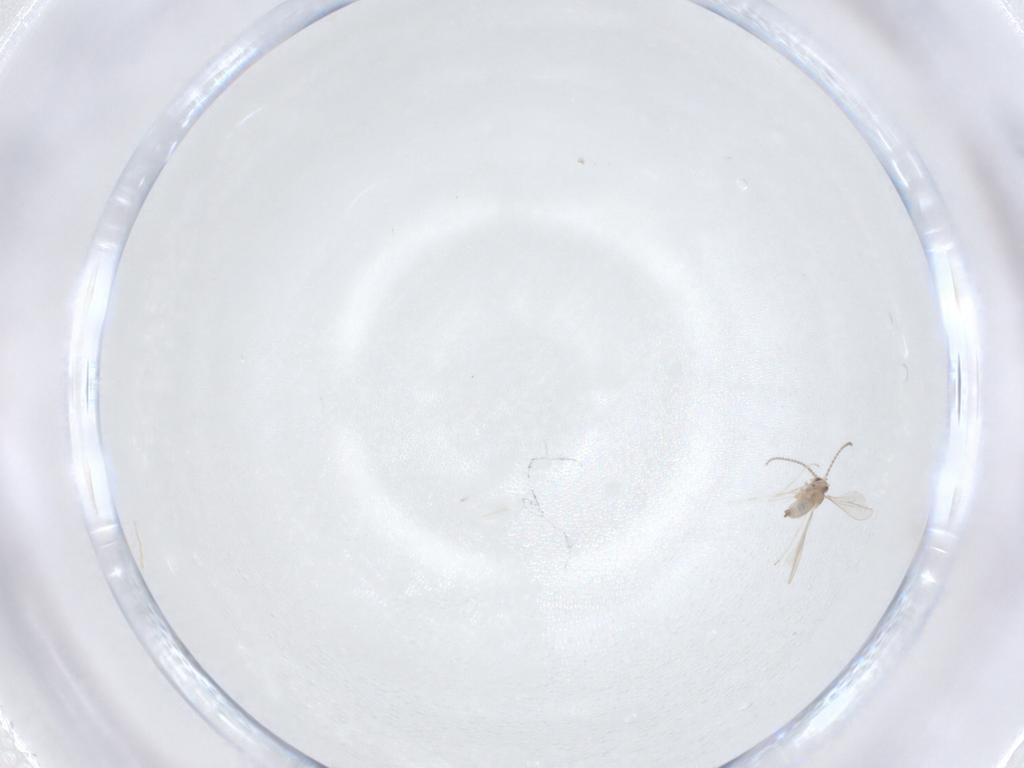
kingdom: Animalia
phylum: Arthropoda
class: Insecta
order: Diptera
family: Cecidomyiidae
